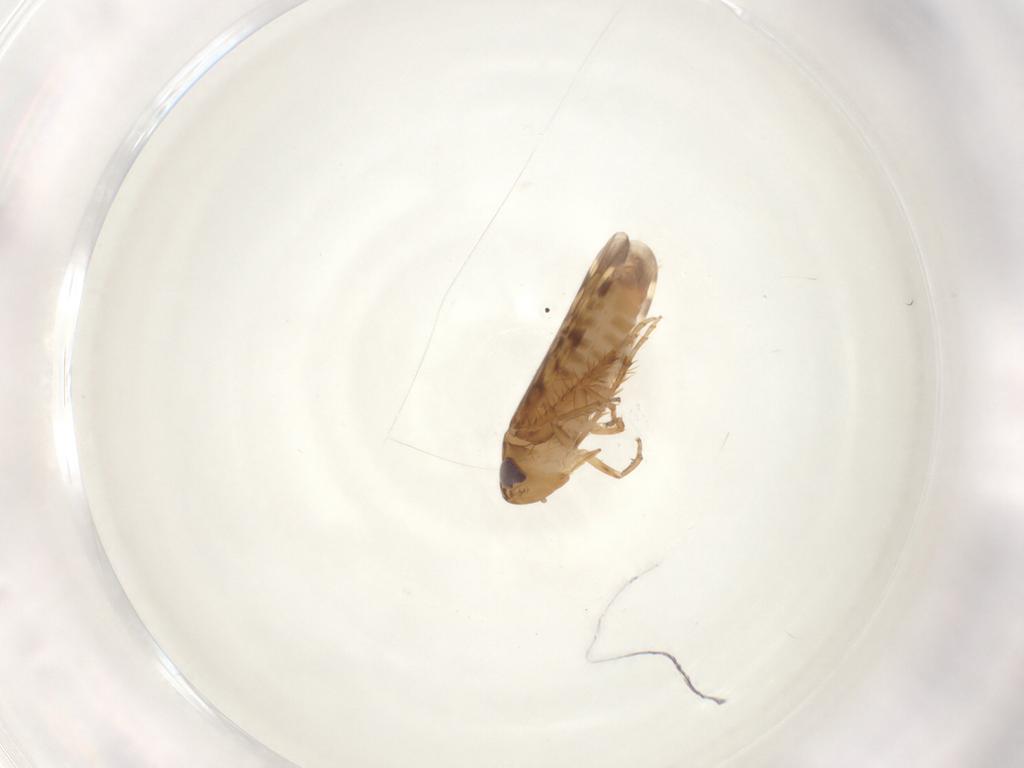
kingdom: Animalia
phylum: Arthropoda
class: Insecta
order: Hemiptera
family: Cicadellidae
